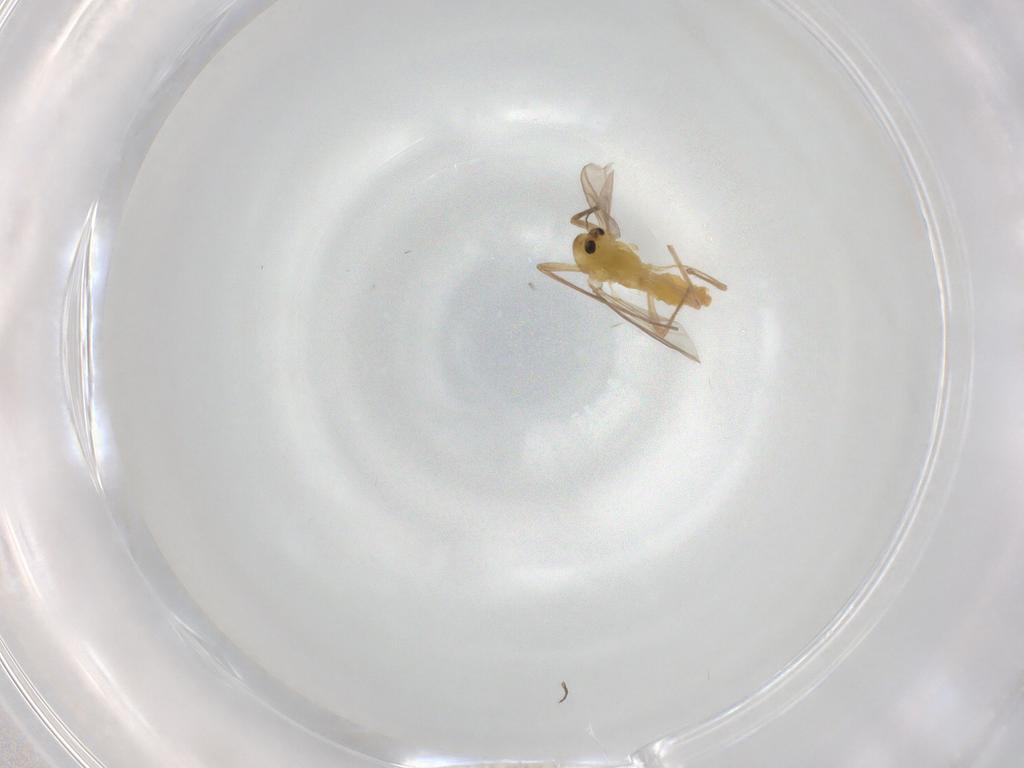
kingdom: Animalia
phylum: Arthropoda
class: Insecta
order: Diptera
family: Chironomidae
